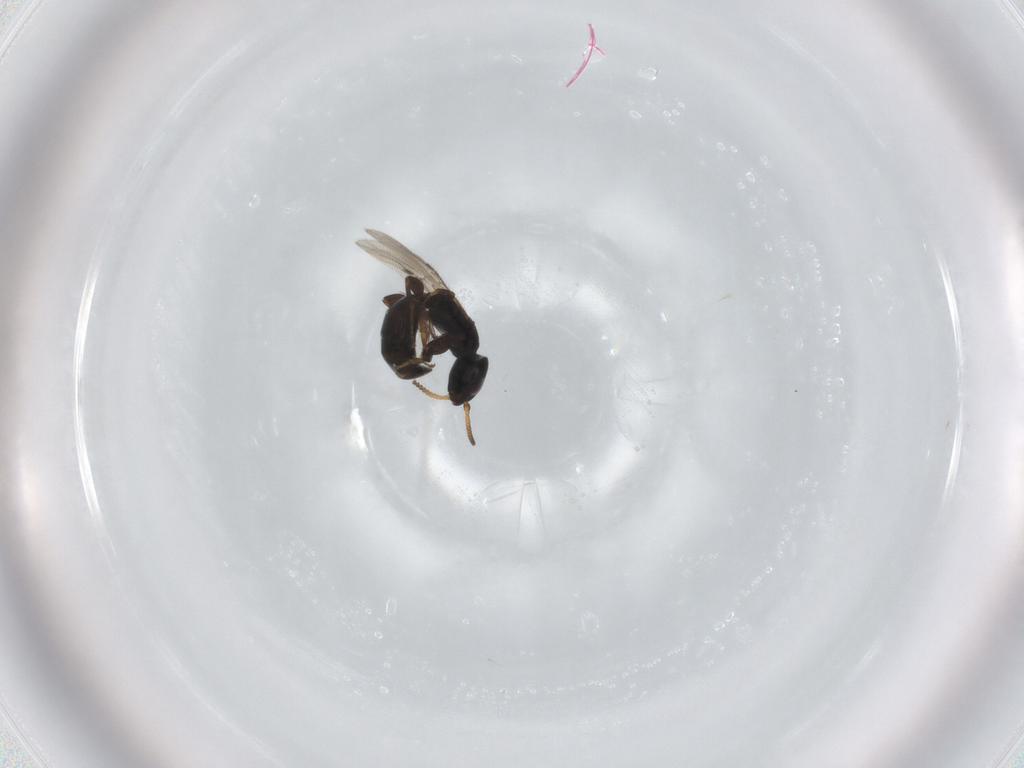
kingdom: Animalia
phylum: Arthropoda
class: Insecta
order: Hymenoptera
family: Bethylidae
